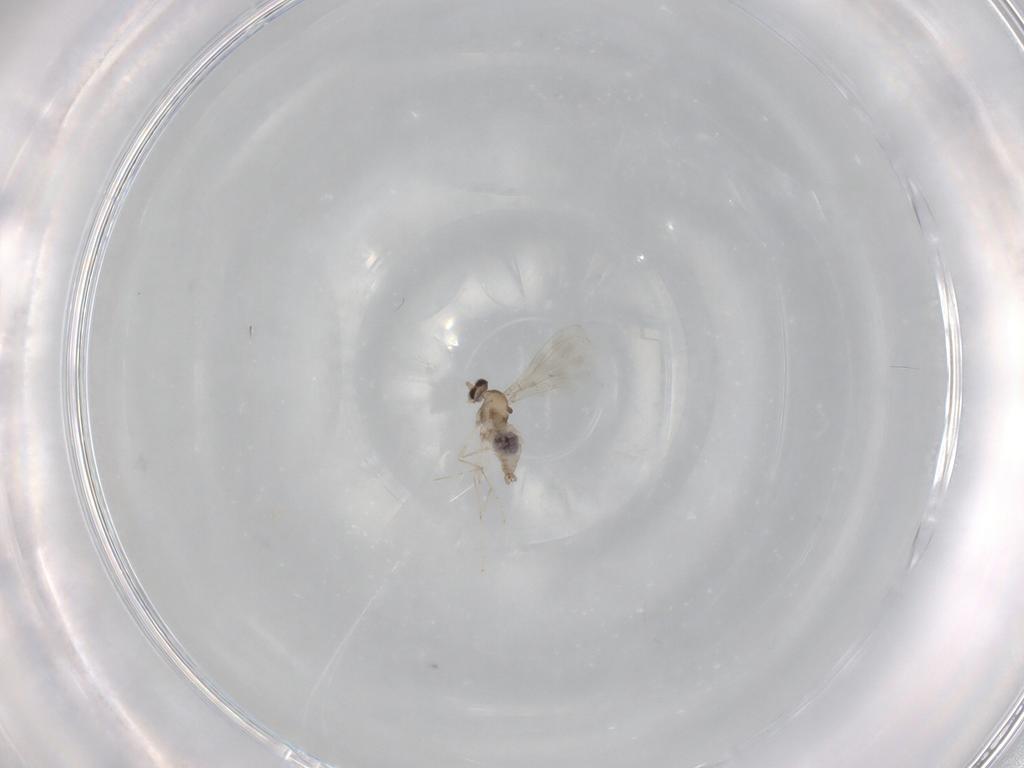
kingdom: Animalia
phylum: Arthropoda
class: Insecta
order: Diptera
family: Cecidomyiidae
